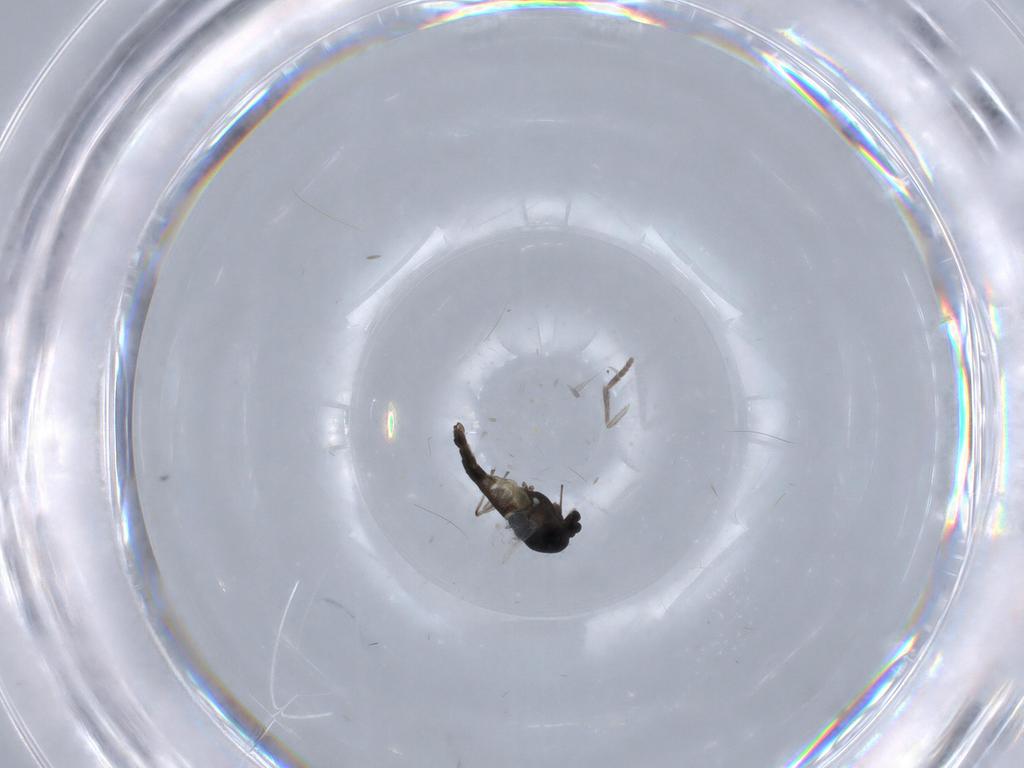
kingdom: Animalia
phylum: Arthropoda
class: Insecta
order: Diptera
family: Chironomidae
